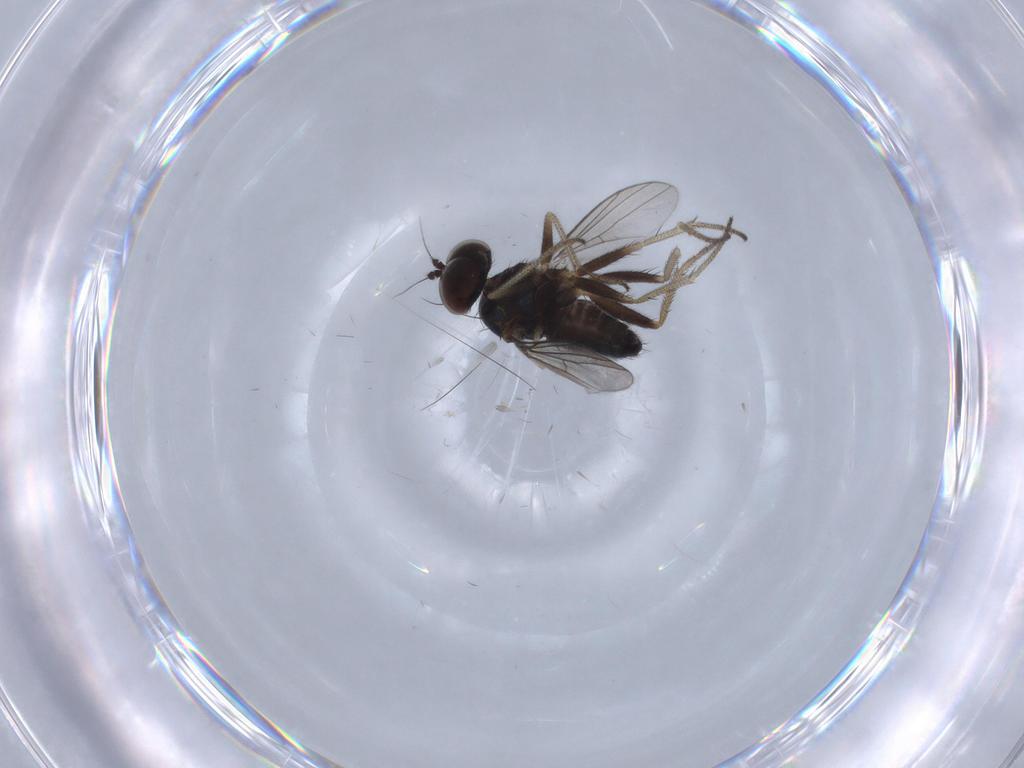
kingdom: Animalia
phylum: Arthropoda
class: Insecta
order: Diptera
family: Dolichopodidae
